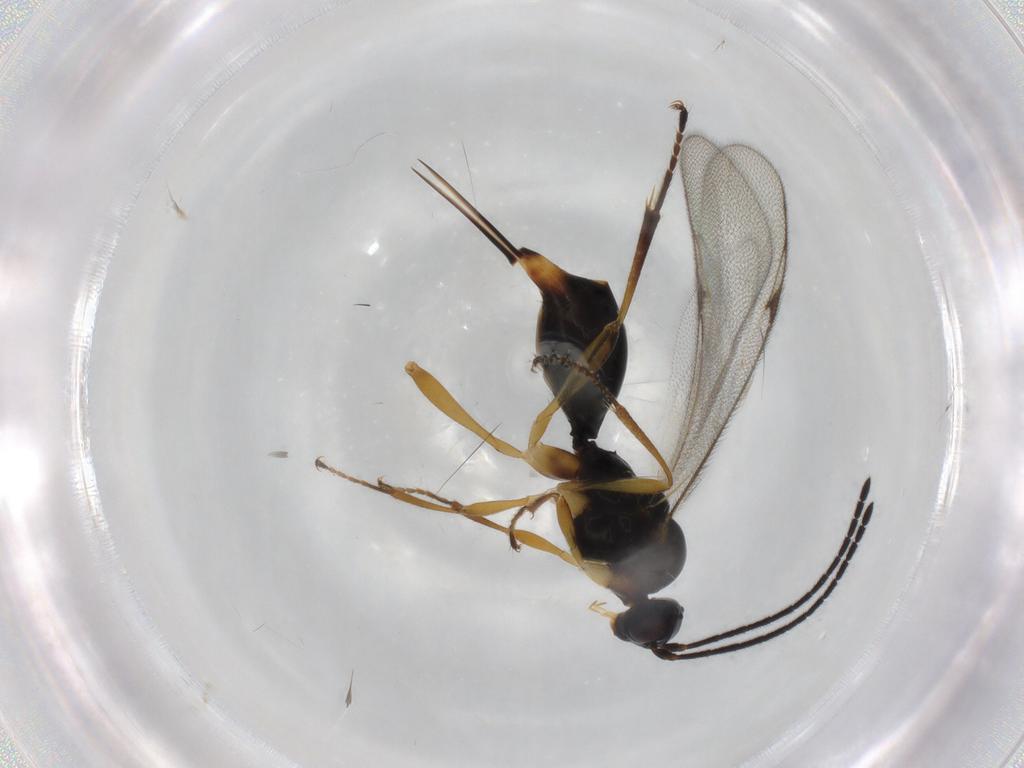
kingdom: Animalia
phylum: Arthropoda
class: Insecta
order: Hymenoptera
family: Proctotrupidae
